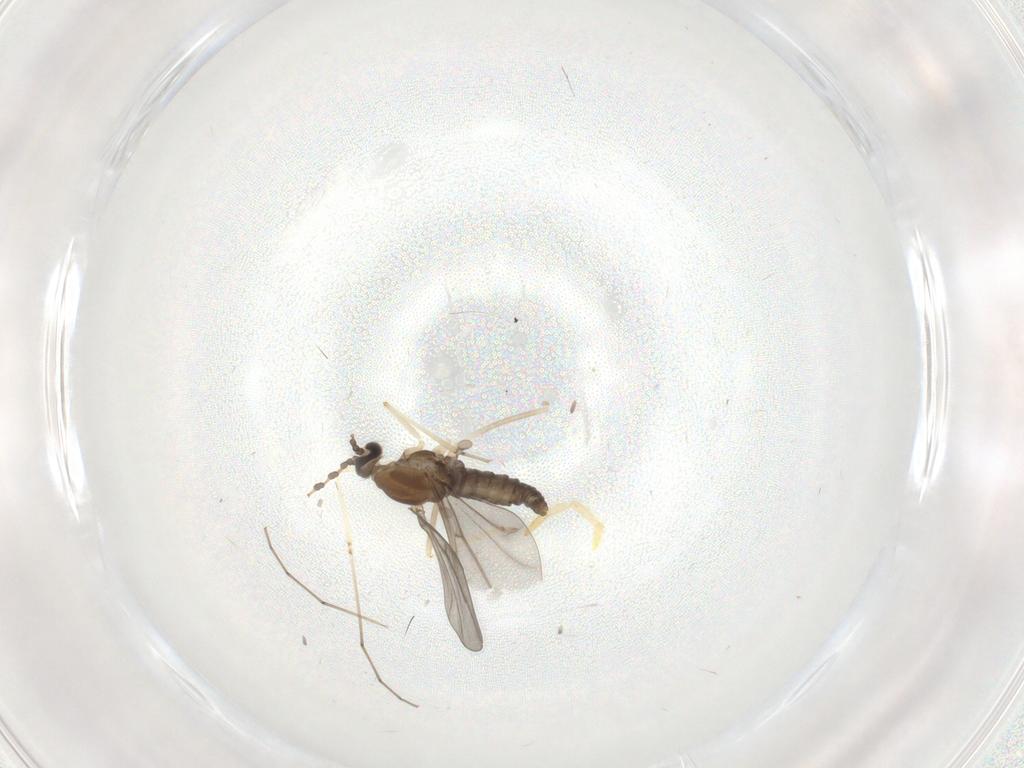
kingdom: Animalia
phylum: Arthropoda
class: Insecta
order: Diptera
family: Cecidomyiidae
